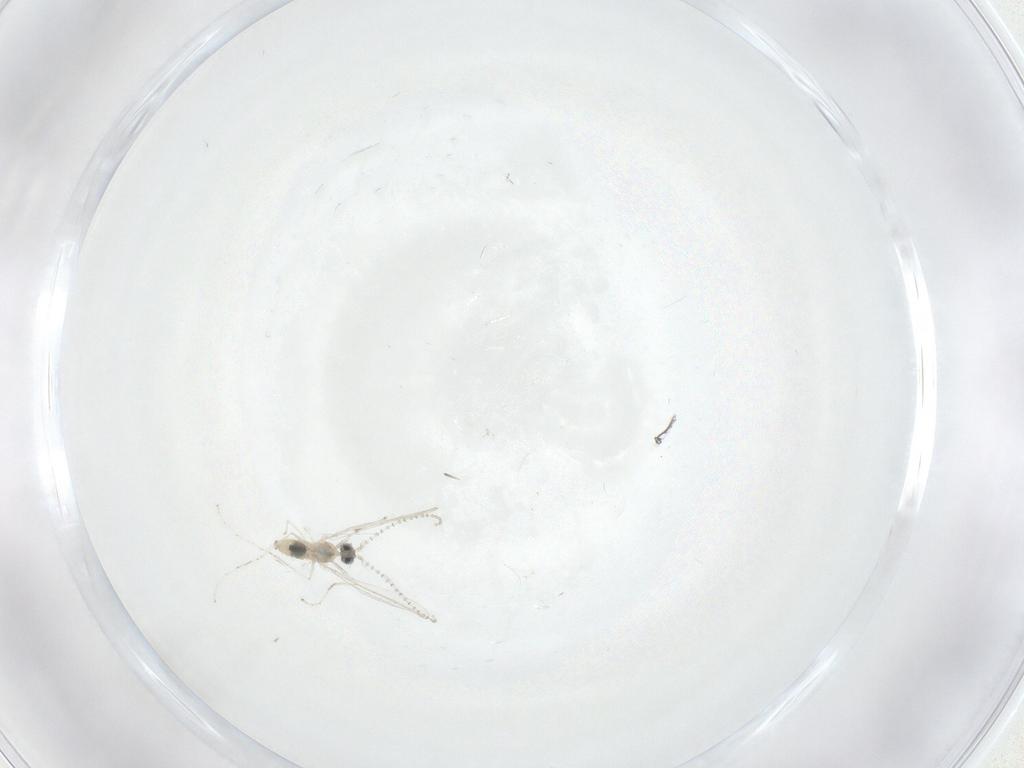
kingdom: Animalia
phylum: Arthropoda
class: Insecta
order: Diptera
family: Cecidomyiidae
